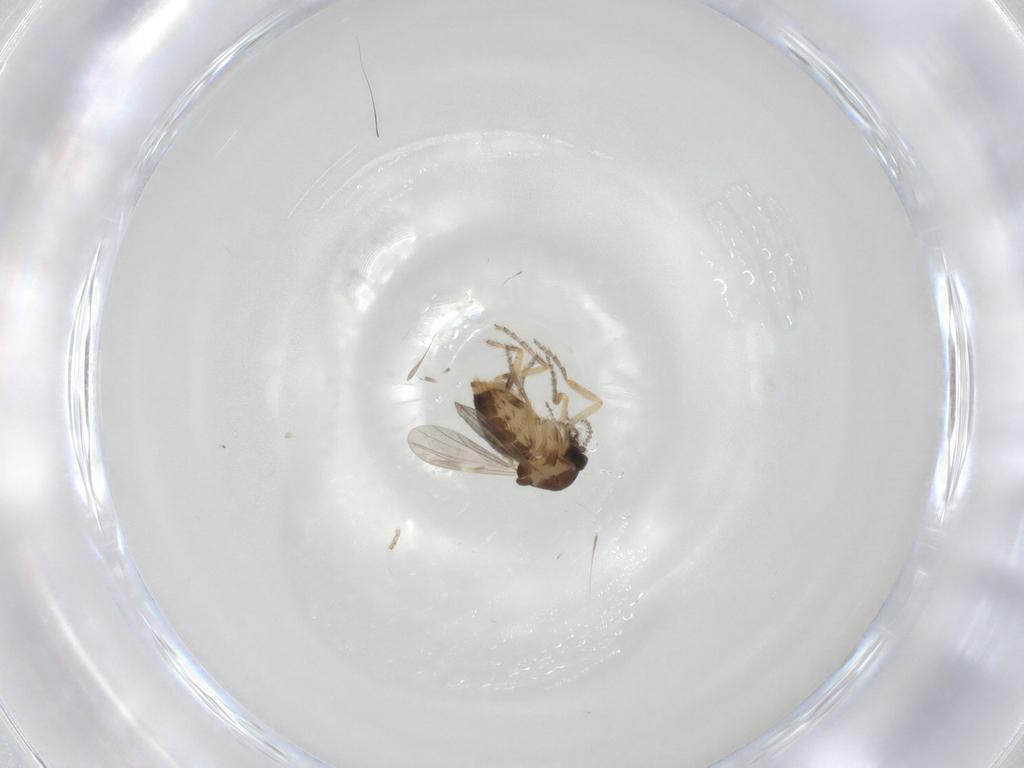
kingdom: Animalia
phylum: Arthropoda
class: Insecta
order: Diptera
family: Ceratopogonidae
